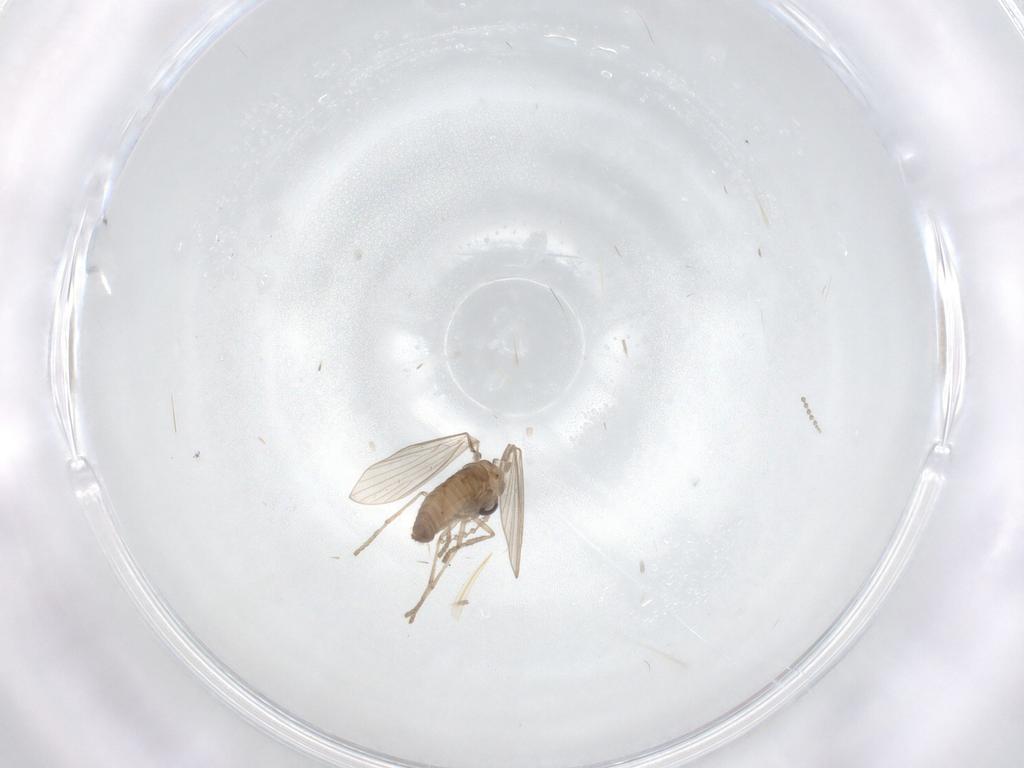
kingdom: Animalia
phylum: Arthropoda
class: Insecta
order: Diptera
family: Psychodidae
